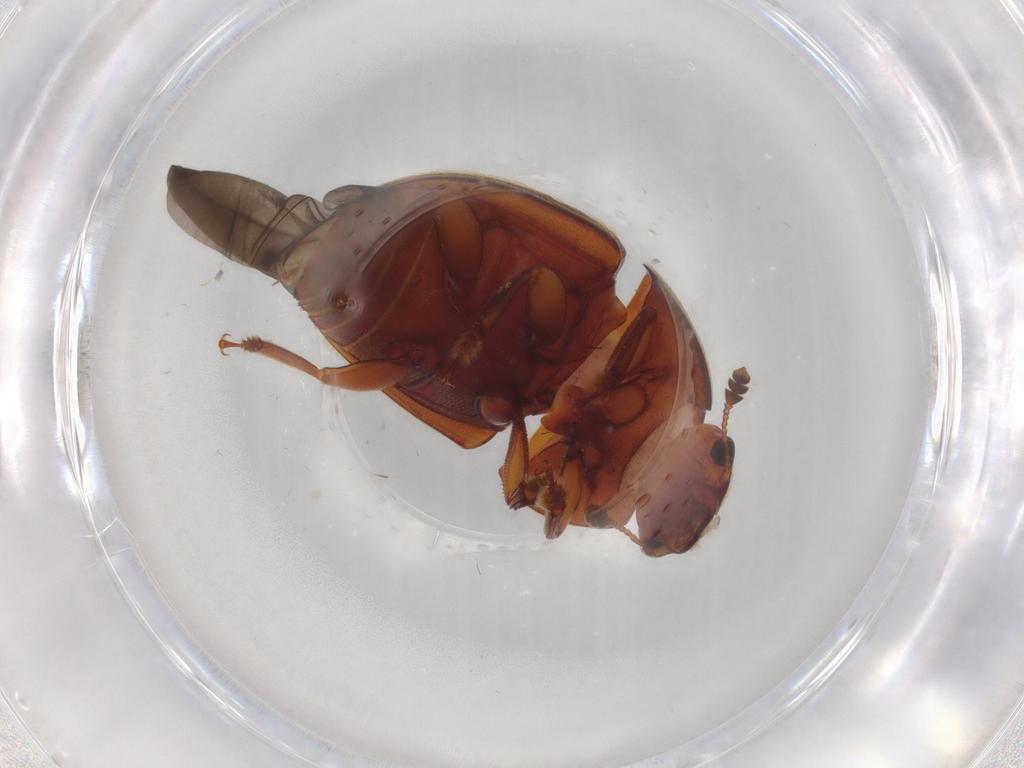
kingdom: Animalia
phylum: Arthropoda
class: Insecta
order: Coleoptera
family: Nitidulidae
